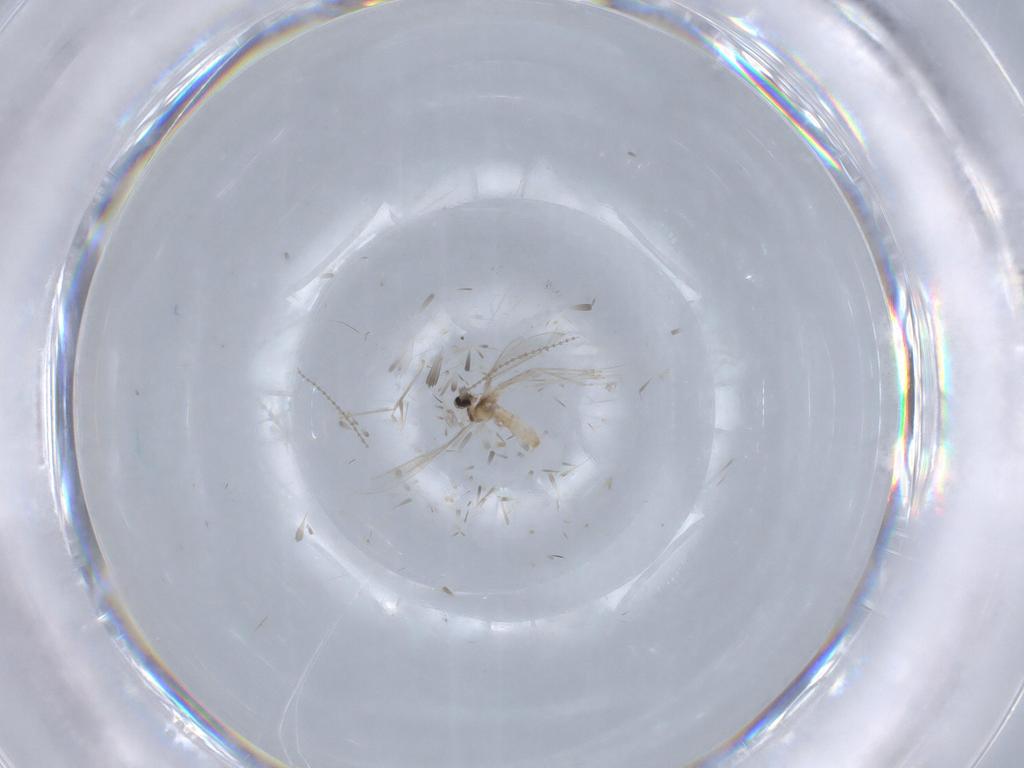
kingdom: Animalia
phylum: Arthropoda
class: Insecta
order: Diptera
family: Cecidomyiidae
